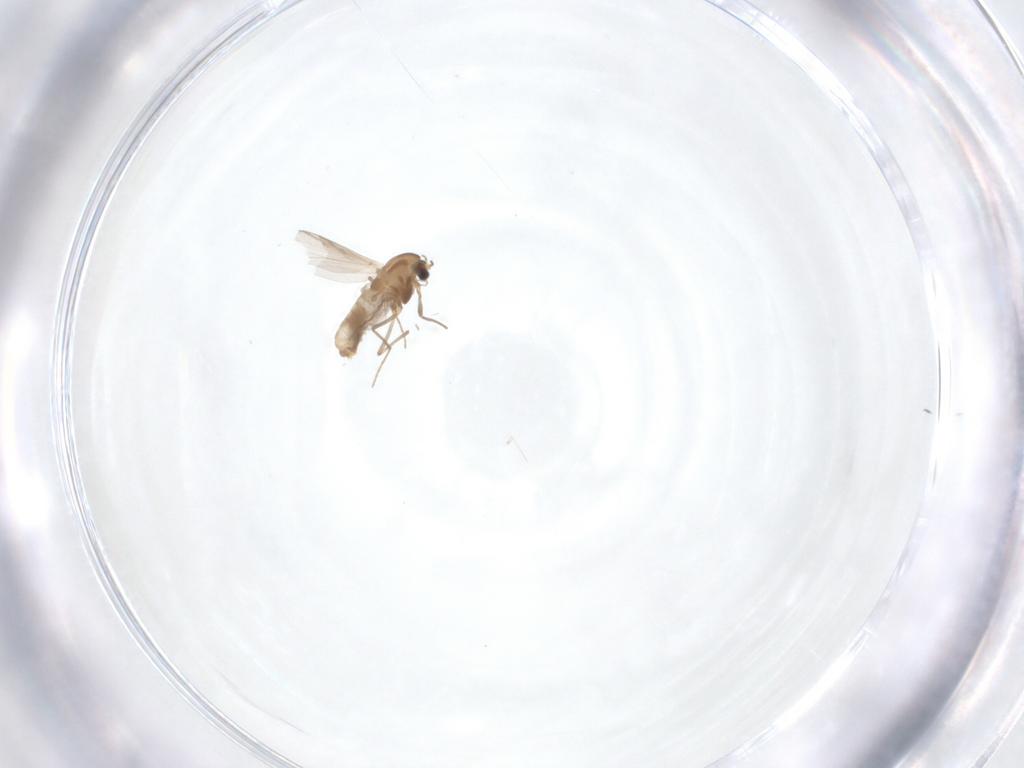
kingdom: Animalia
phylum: Arthropoda
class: Insecta
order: Diptera
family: Chironomidae
